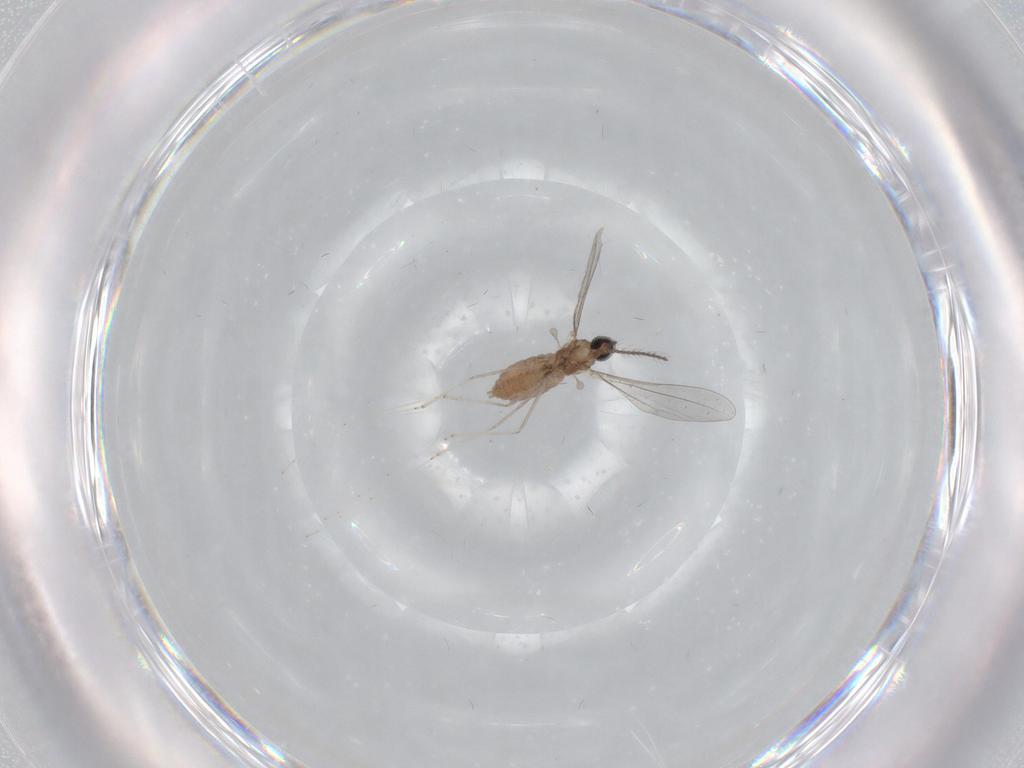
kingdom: Animalia
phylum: Arthropoda
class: Insecta
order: Diptera
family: Cecidomyiidae
